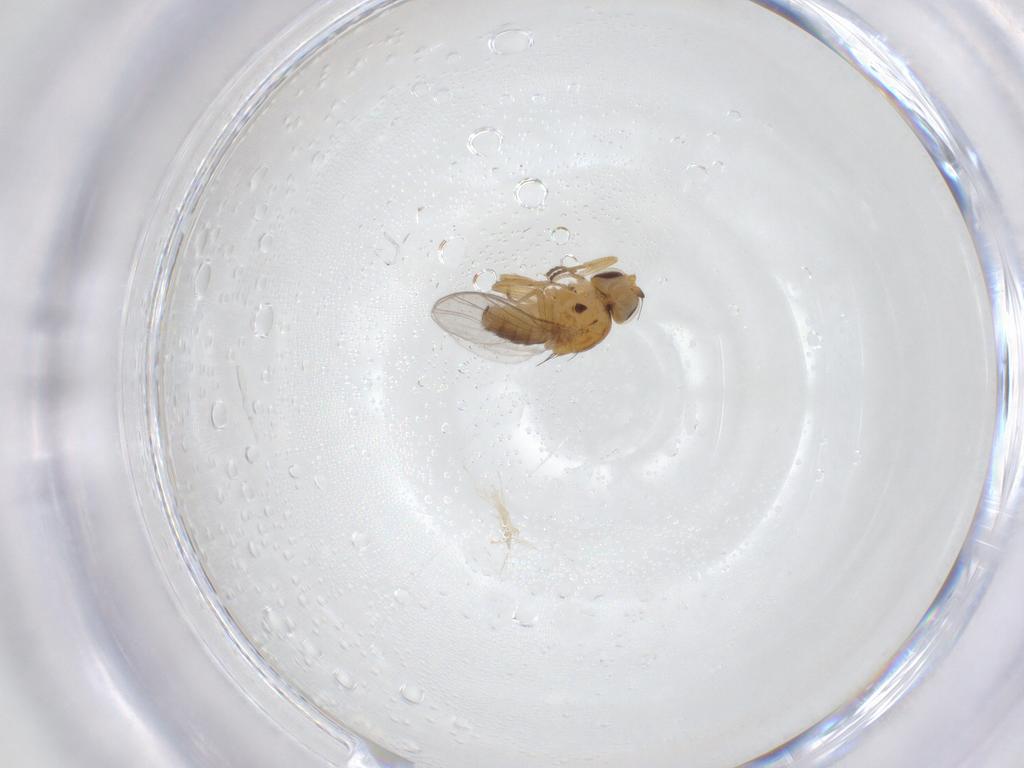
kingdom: Animalia
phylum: Arthropoda
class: Insecta
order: Diptera
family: Chloropidae
